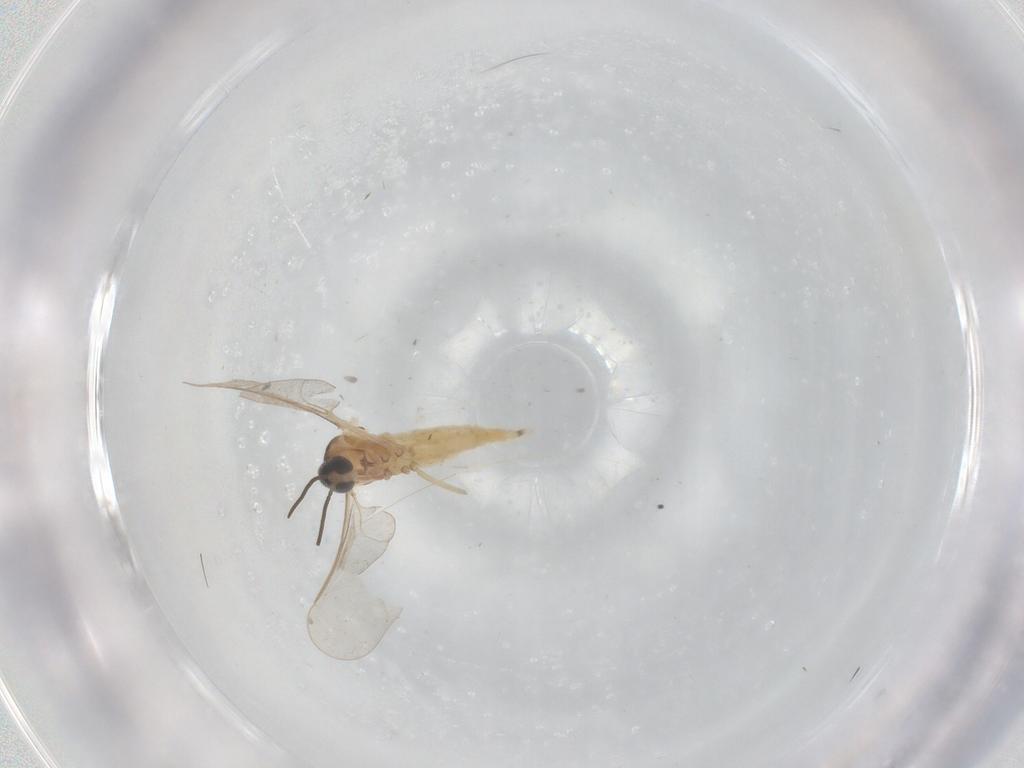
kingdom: Animalia
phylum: Arthropoda
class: Insecta
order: Diptera
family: Cecidomyiidae
